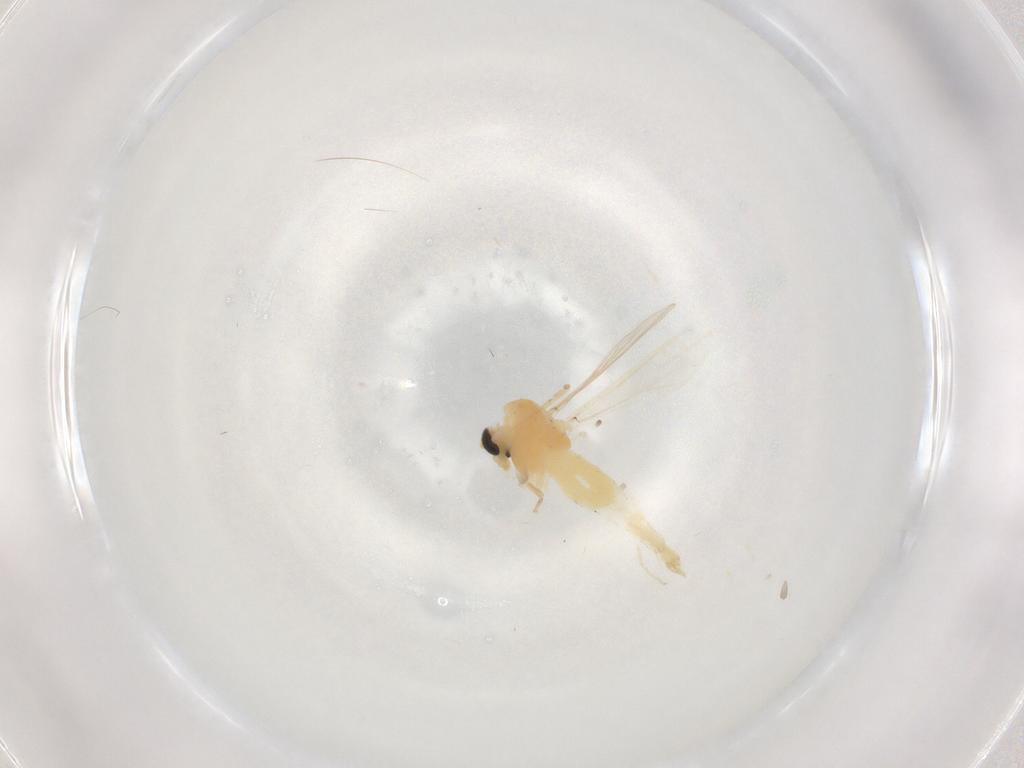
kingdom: Animalia
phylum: Arthropoda
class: Insecta
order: Diptera
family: Chironomidae
